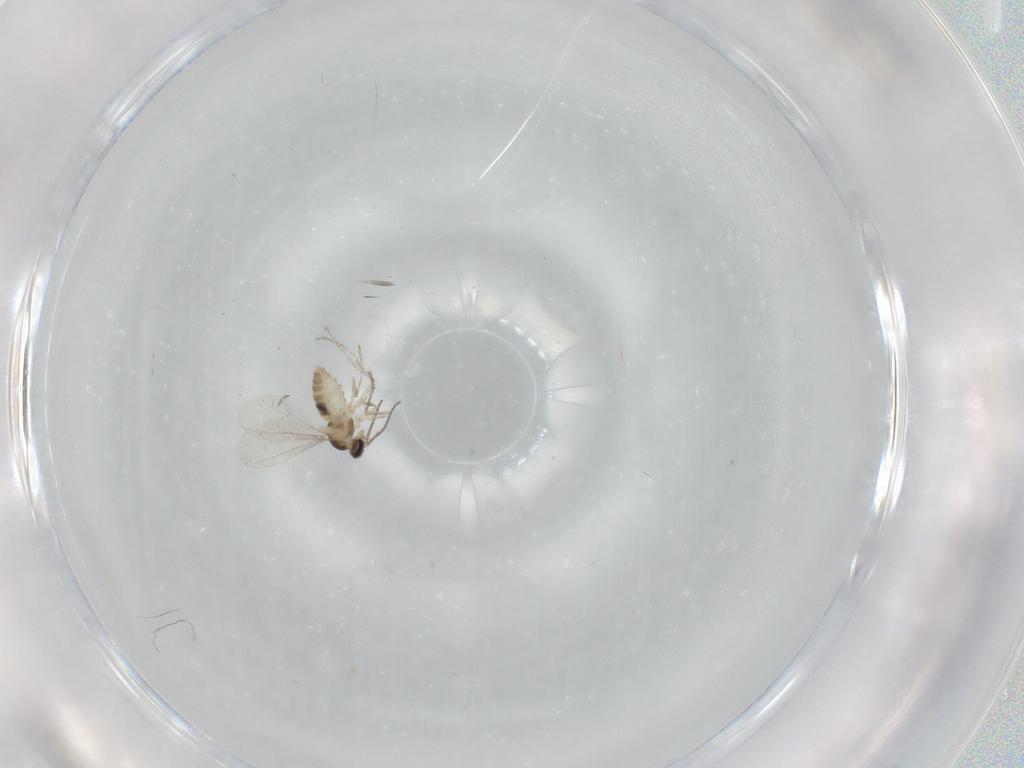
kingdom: Animalia
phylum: Arthropoda
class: Insecta
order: Diptera
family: Cecidomyiidae
